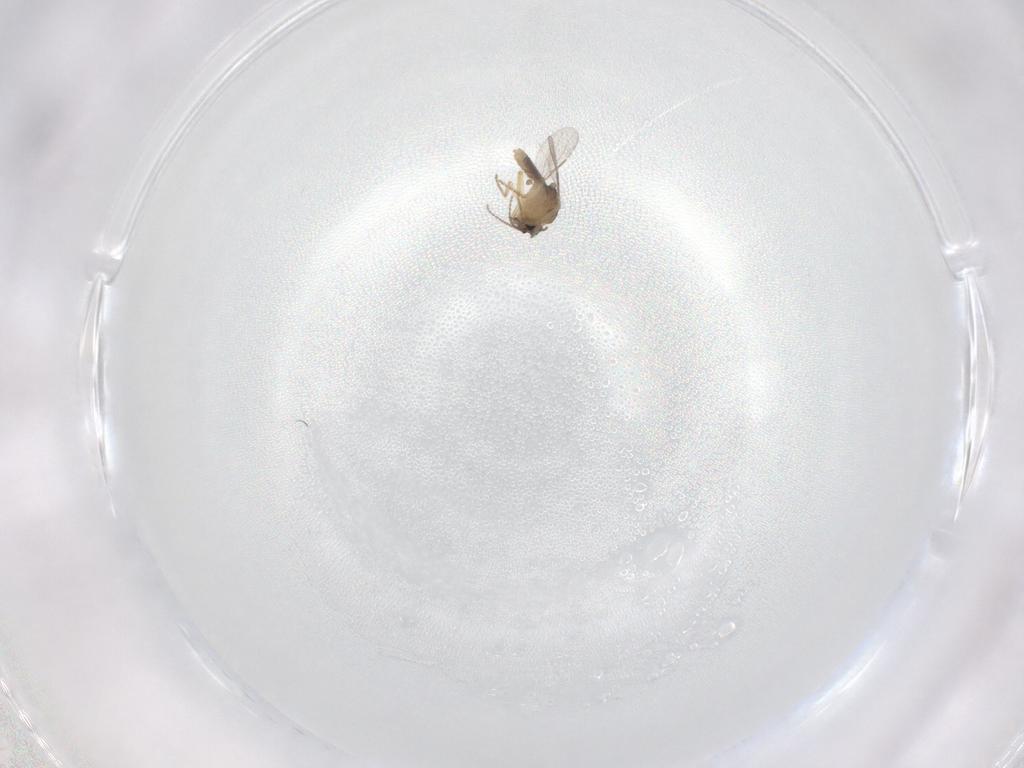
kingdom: Animalia
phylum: Arthropoda
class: Insecta
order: Diptera
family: Ceratopogonidae
